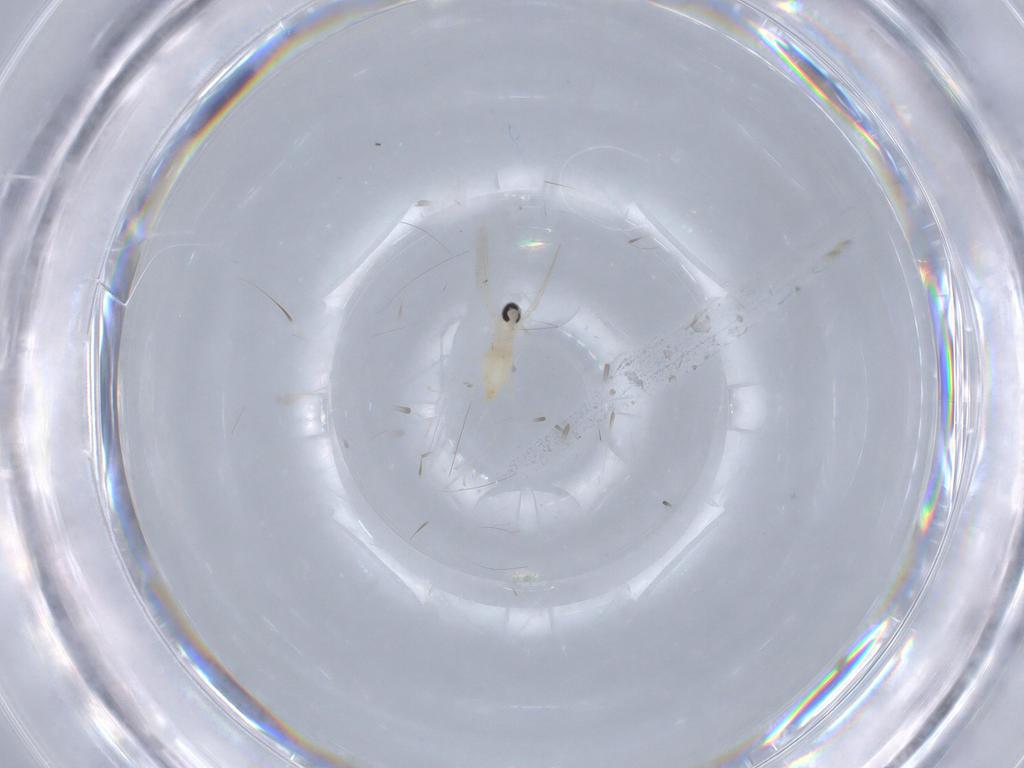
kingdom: Animalia
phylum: Arthropoda
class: Insecta
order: Diptera
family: Cecidomyiidae
